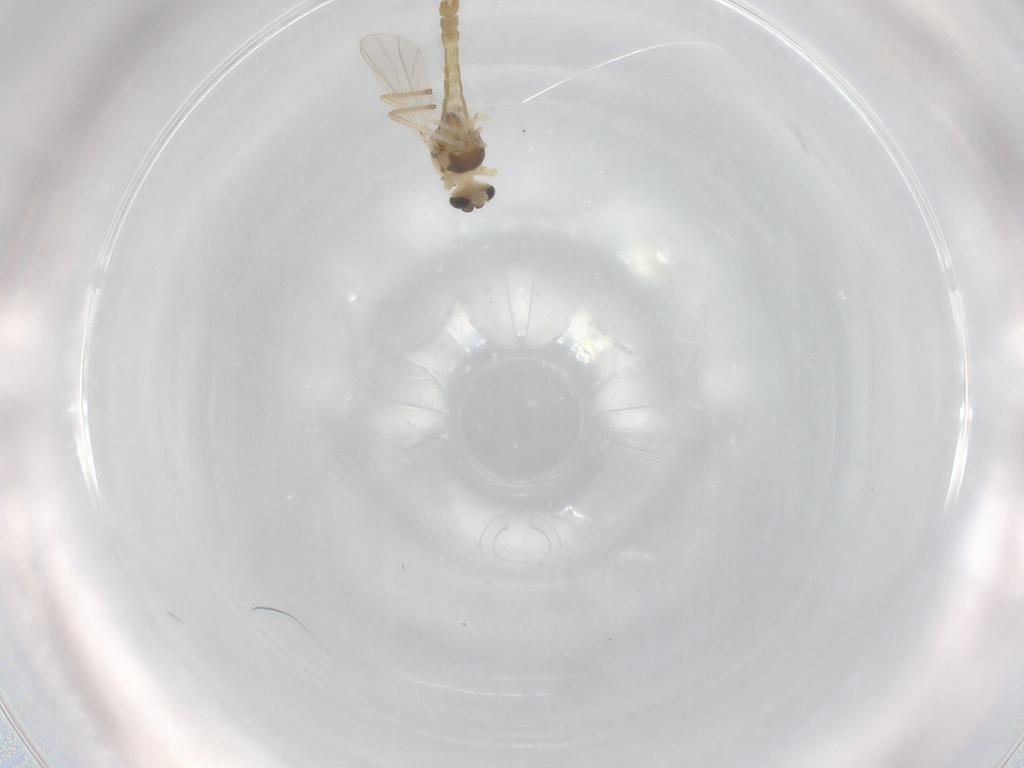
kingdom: Animalia
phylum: Arthropoda
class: Insecta
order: Diptera
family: Chironomidae
